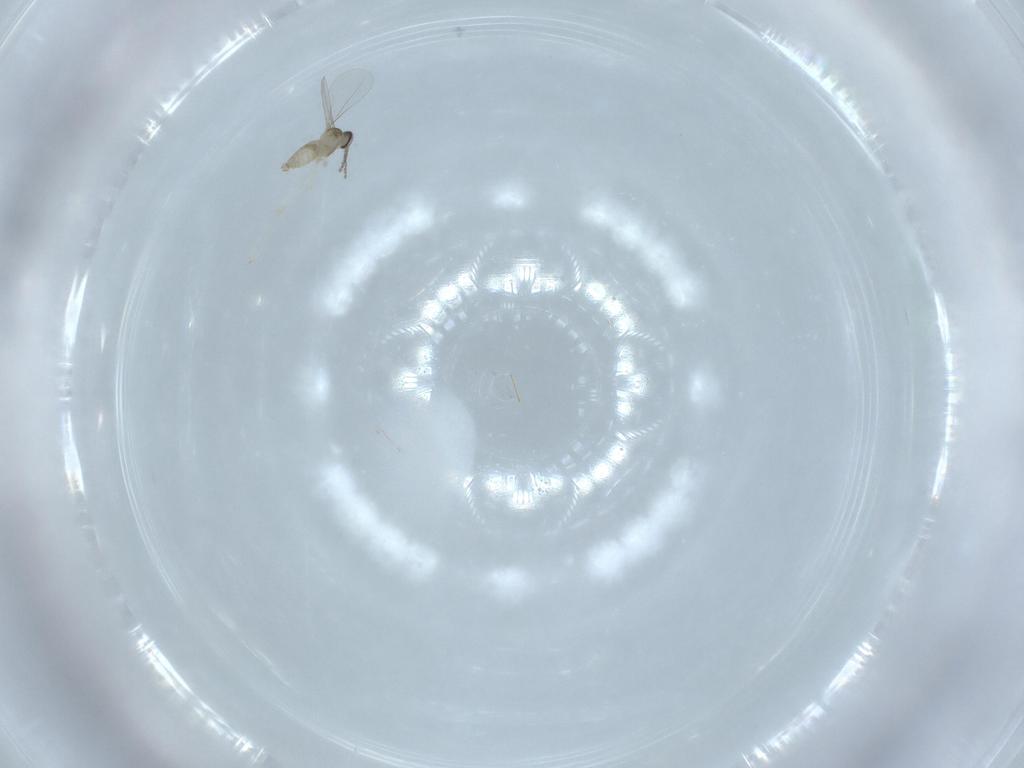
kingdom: Animalia
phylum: Arthropoda
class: Insecta
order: Diptera
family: Cecidomyiidae
